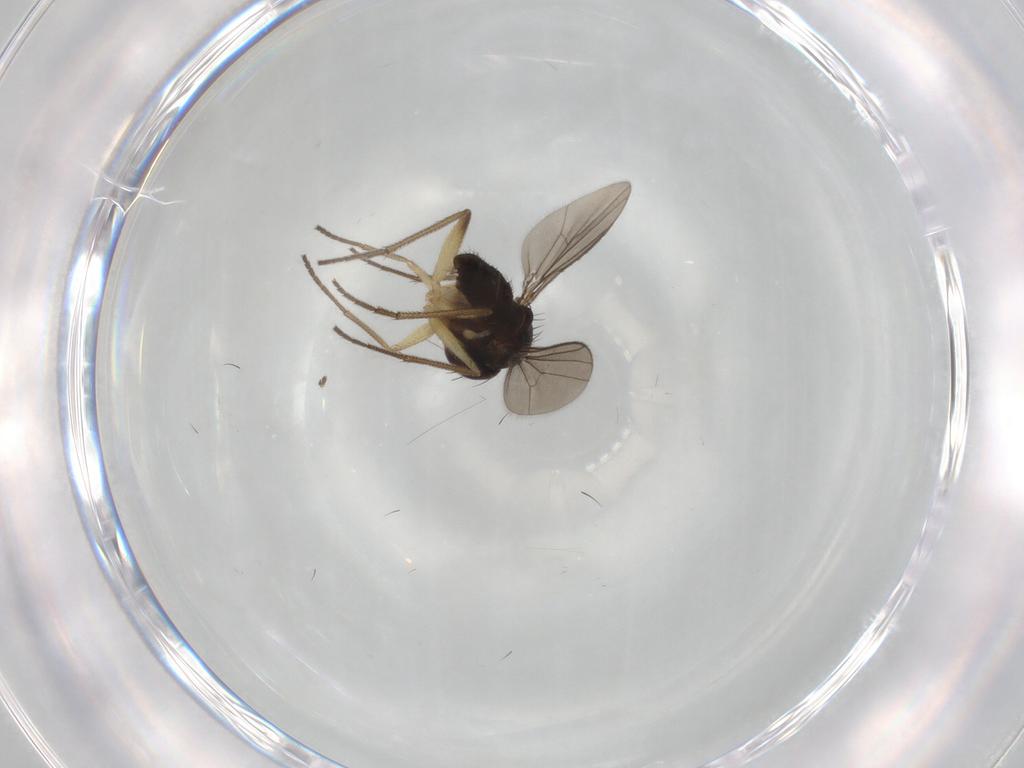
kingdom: Animalia
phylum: Arthropoda
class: Insecta
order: Diptera
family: Dolichopodidae
